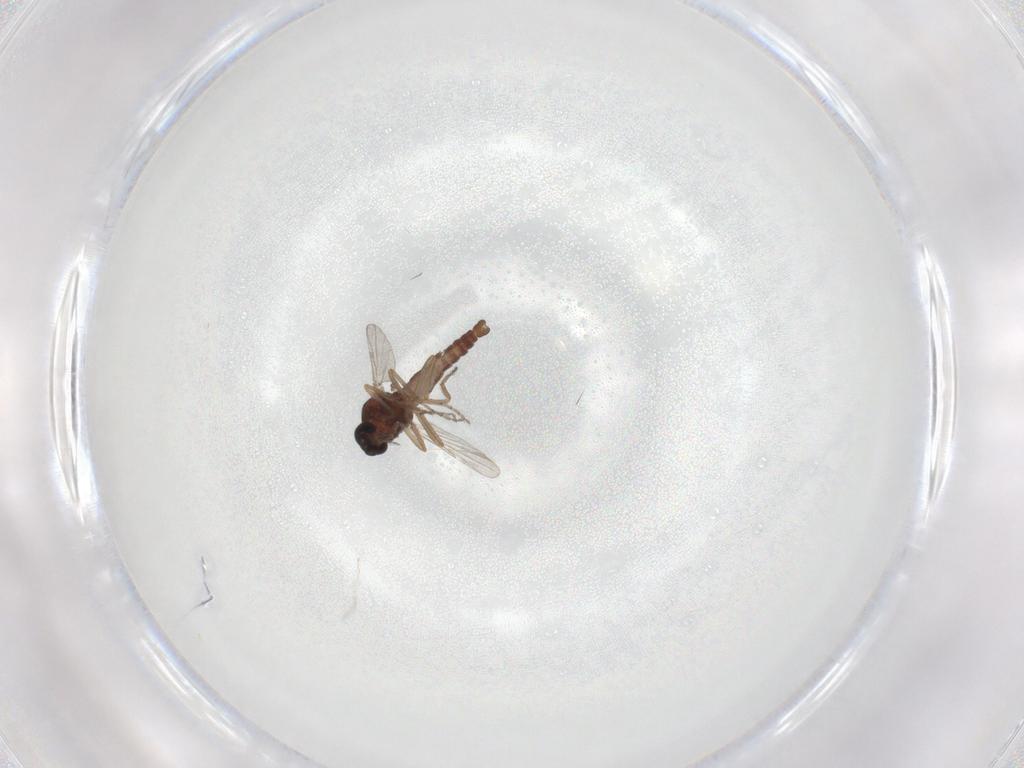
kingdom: Animalia
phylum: Arthropoda
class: Insecta
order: Diptera
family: Ceratopogonidae
